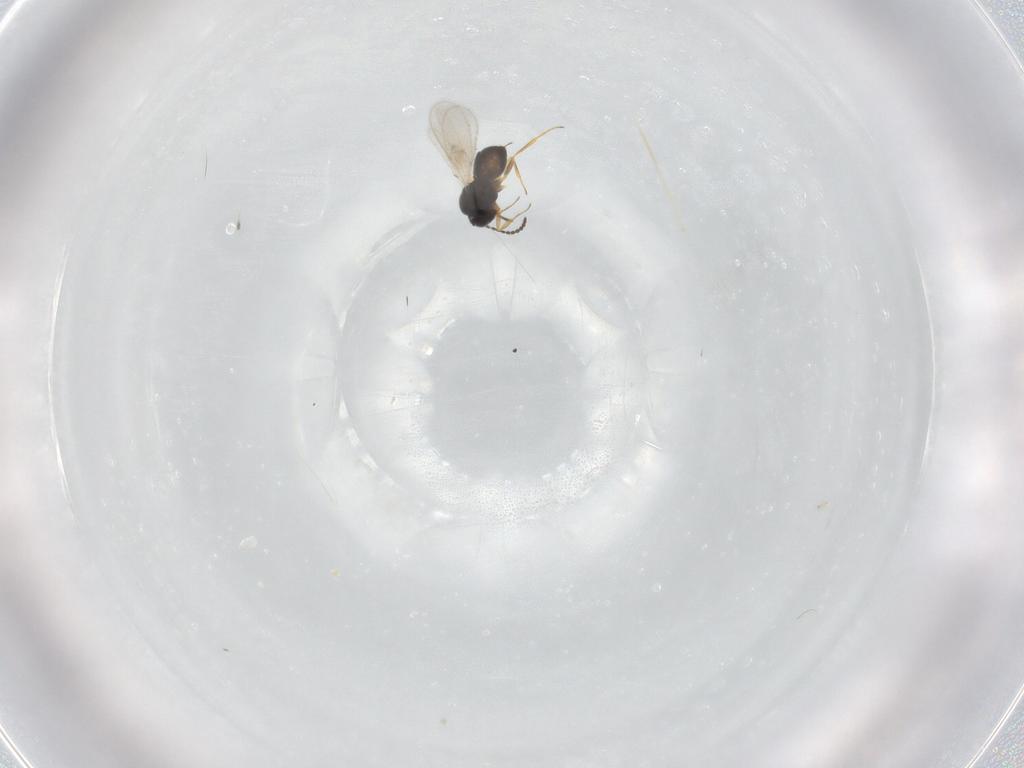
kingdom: Animalia
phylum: Arthropoda
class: Insecta
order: Hymenoptera
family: Scelionidae
